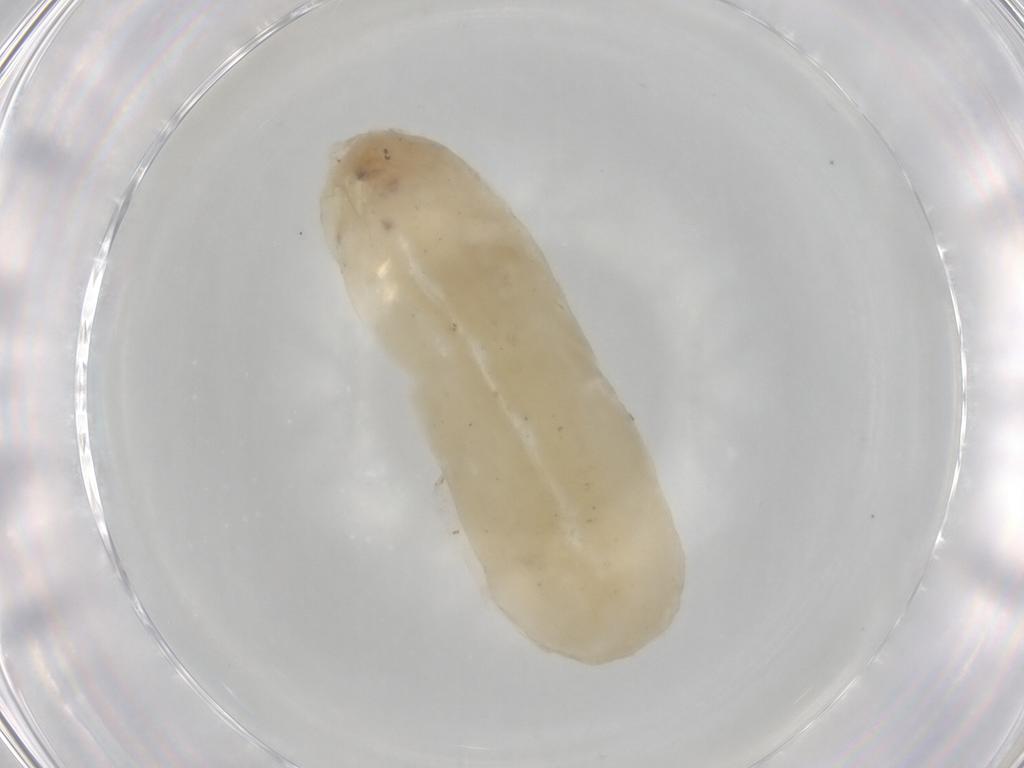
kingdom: Animalia
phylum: Arthropoda
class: Insecta
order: Diptera
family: Chironomidae
